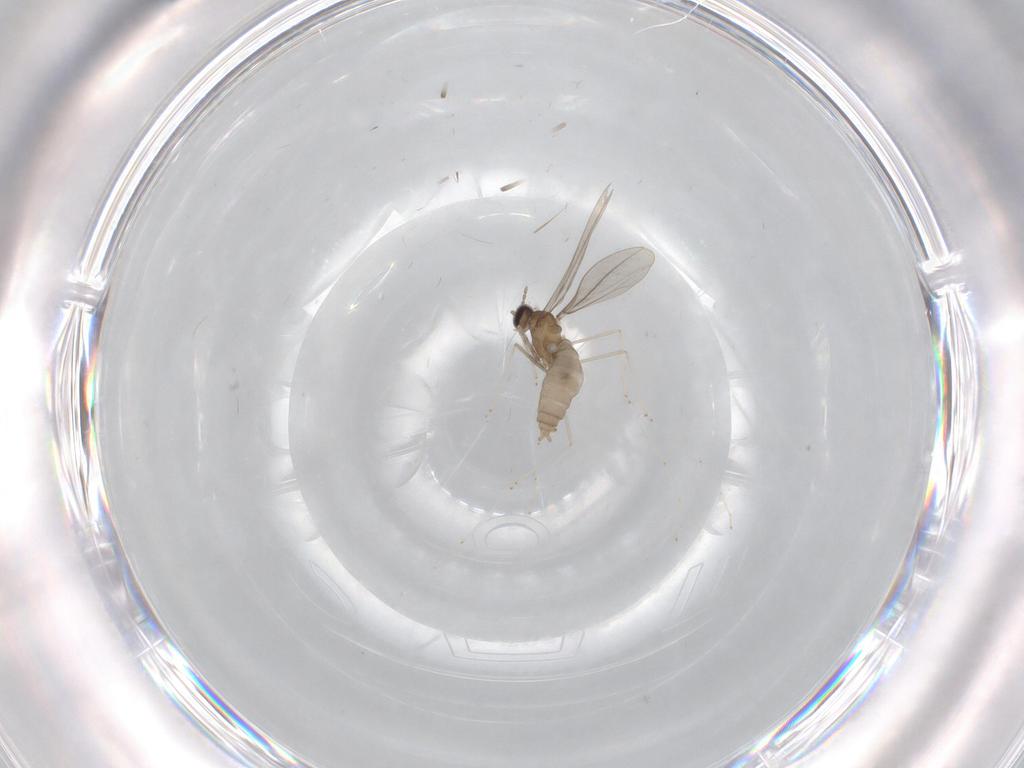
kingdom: Animalia
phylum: Arthropoda
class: Insecta
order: Diptera
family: Cecidomyiidae
